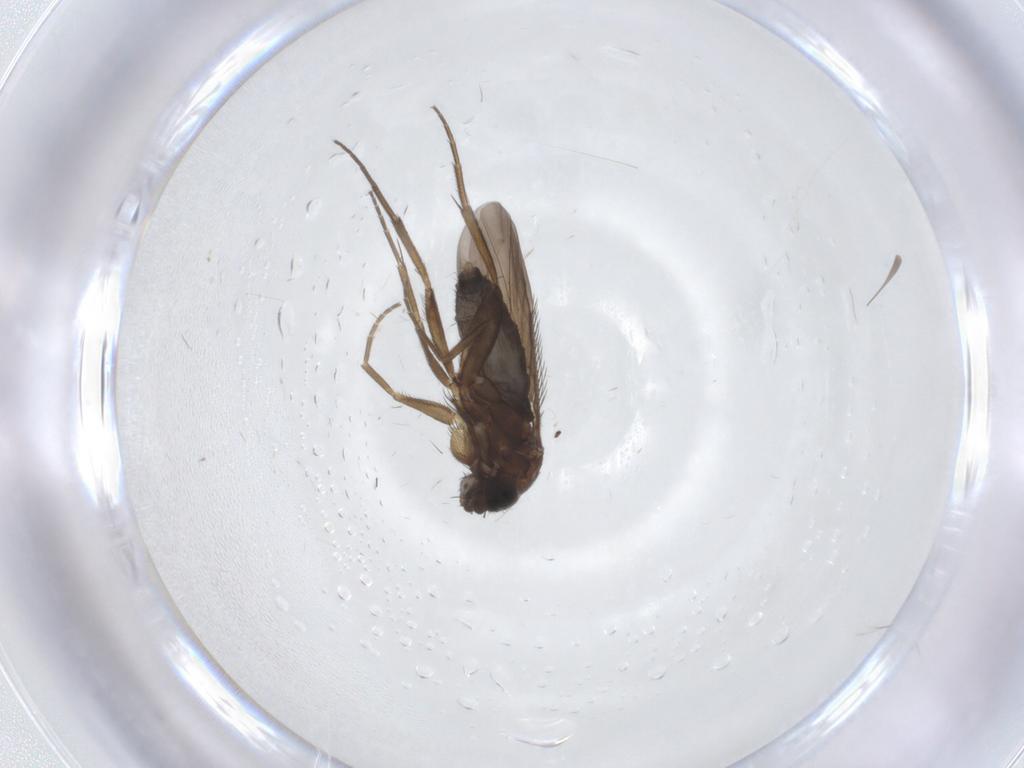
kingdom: Animalia
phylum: Arthropoda
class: Insecta
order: Diptera
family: Phoridae
